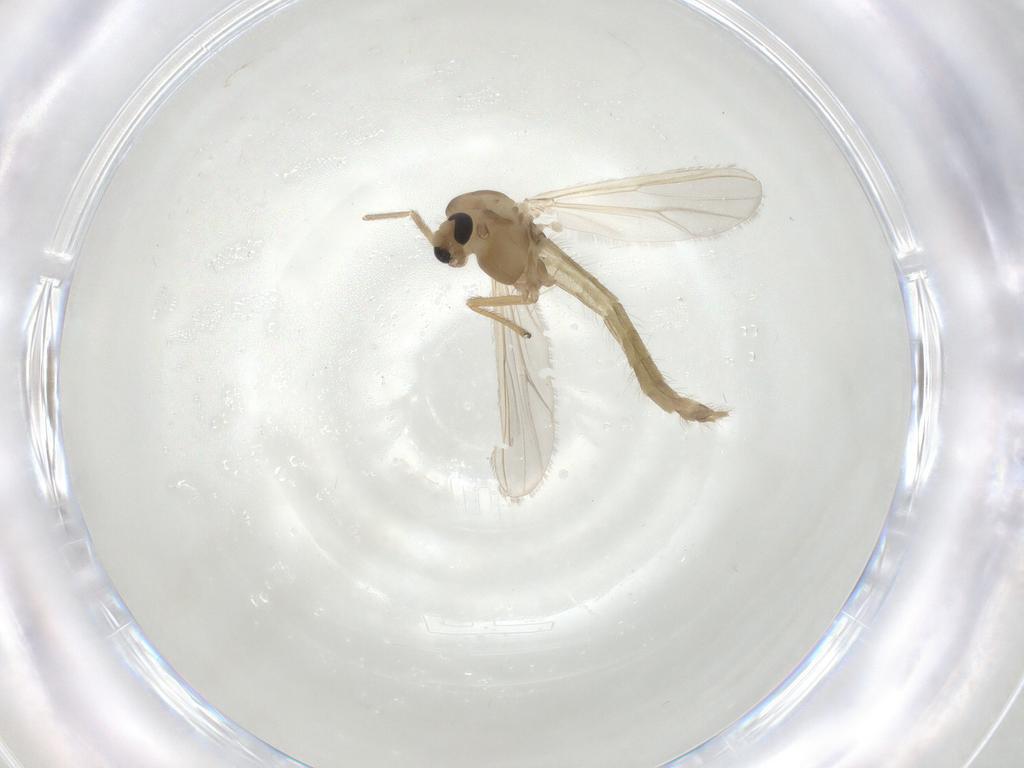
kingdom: Animalia
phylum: Arthropoda
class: Insecta
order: Diptera
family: Chironomidae
